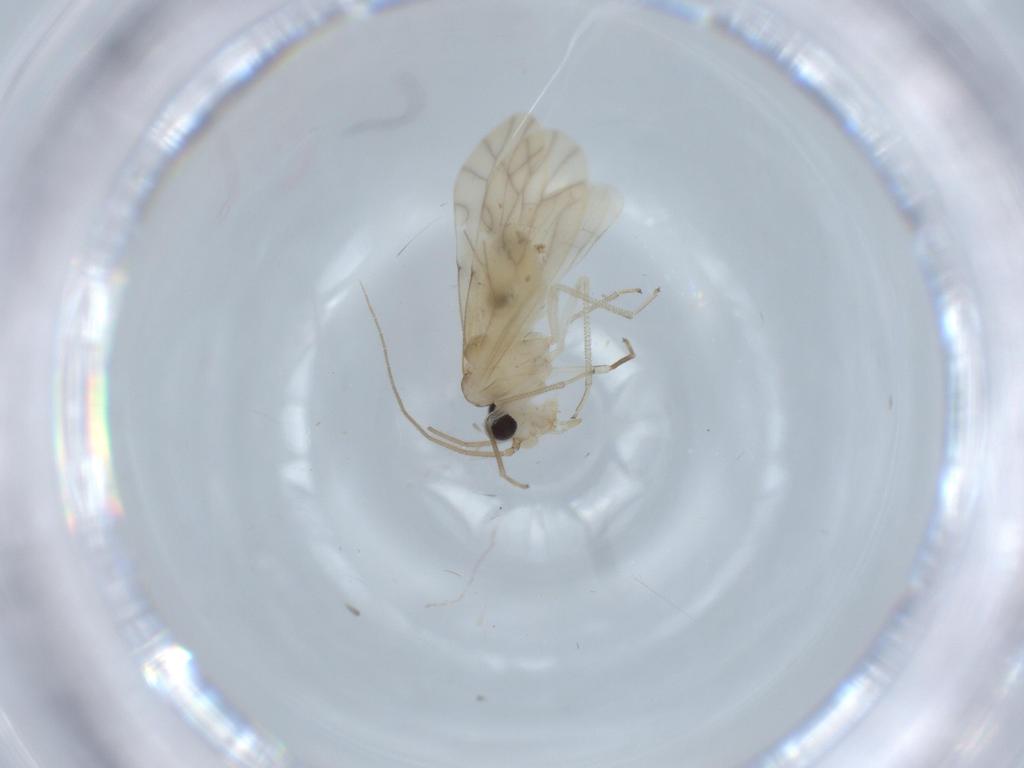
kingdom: Animalia
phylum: Arthropoda
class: Insecta
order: Psocodea
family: Caeciliusidae
